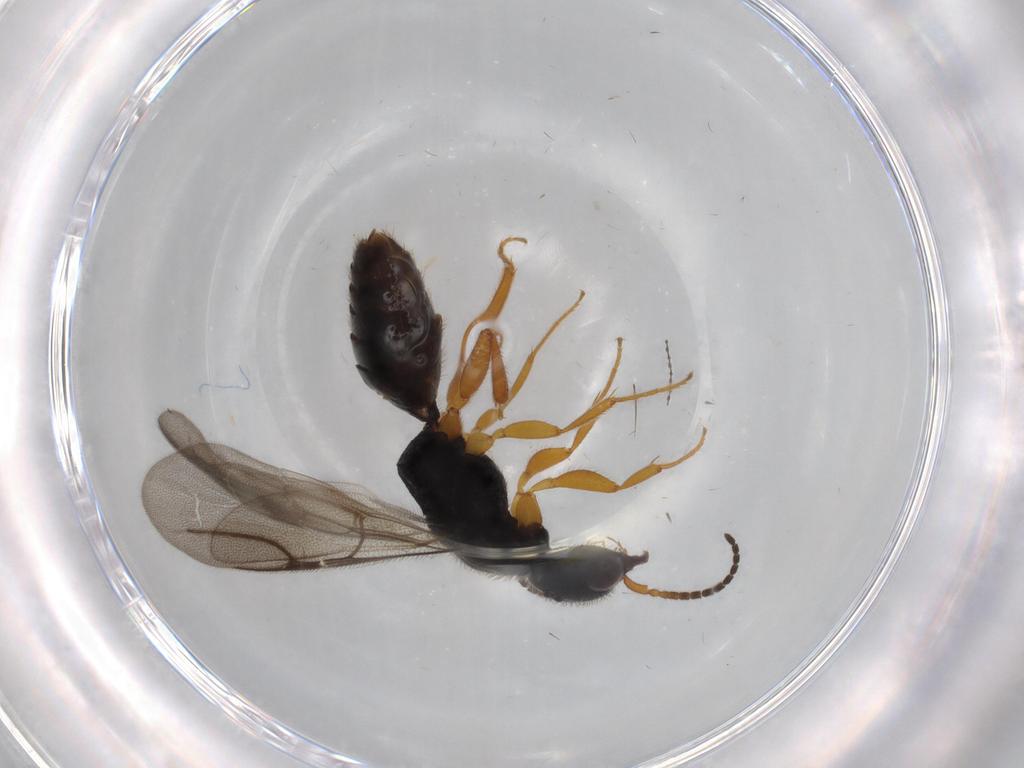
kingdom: Animalia
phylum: Arthropoda
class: Insecta
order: Hymenoptera
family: Bethylidae
